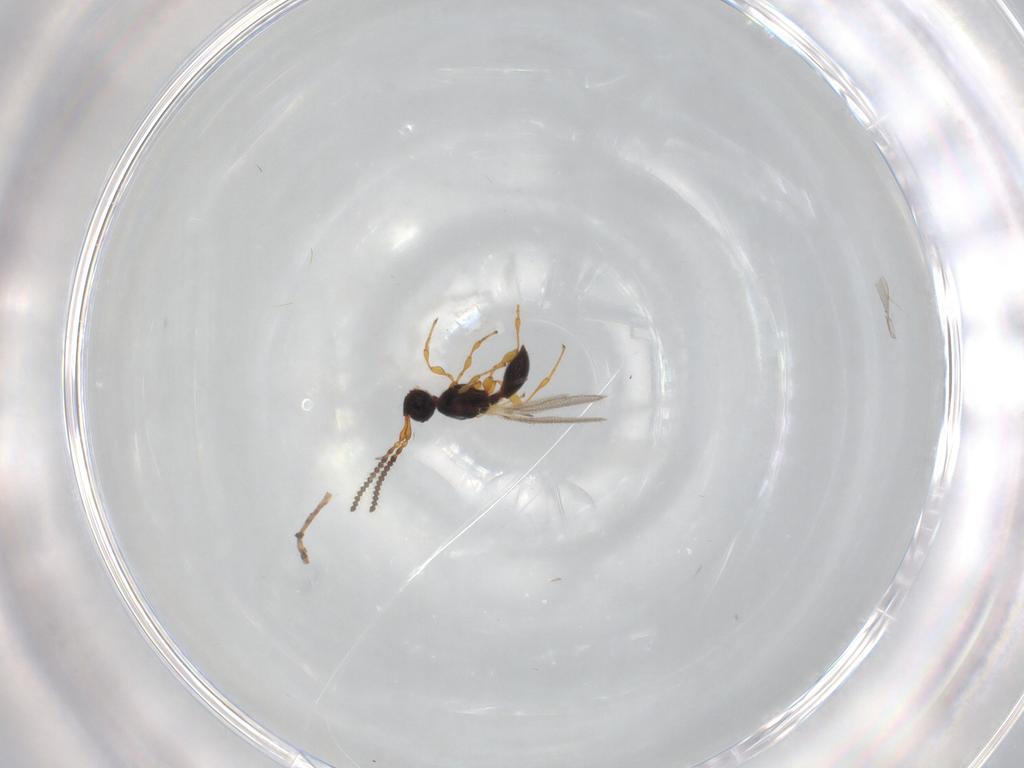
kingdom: Animalia
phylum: Arthropoda
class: Insecta
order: Hymenoptera
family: Diapriidae
